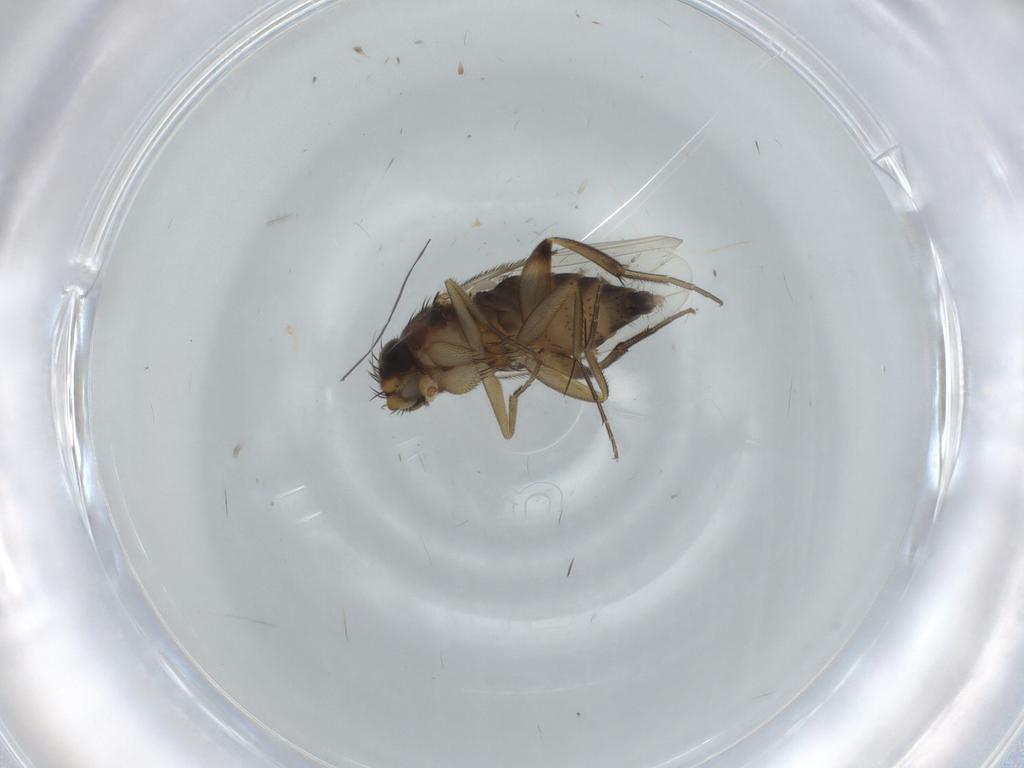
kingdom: Animalia
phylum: Arthropoda
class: Insecta
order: Diptera
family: Phoridae
